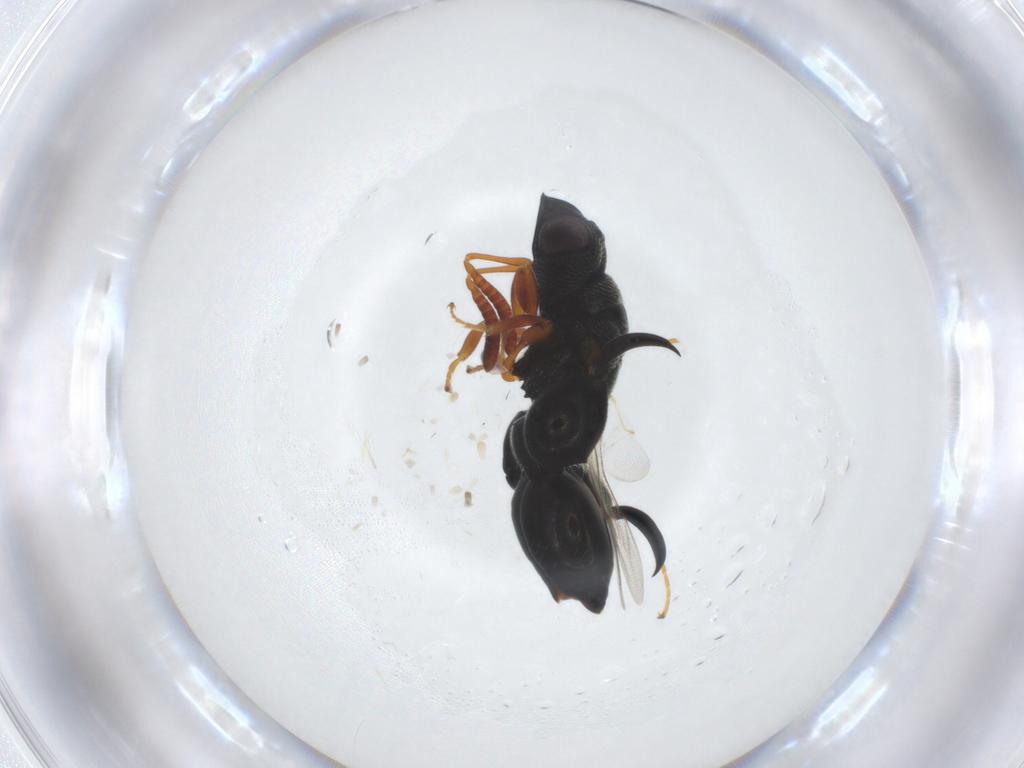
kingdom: Animalia
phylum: Arthropoda
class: Insecta
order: Hymenoptera
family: Chalcididae
